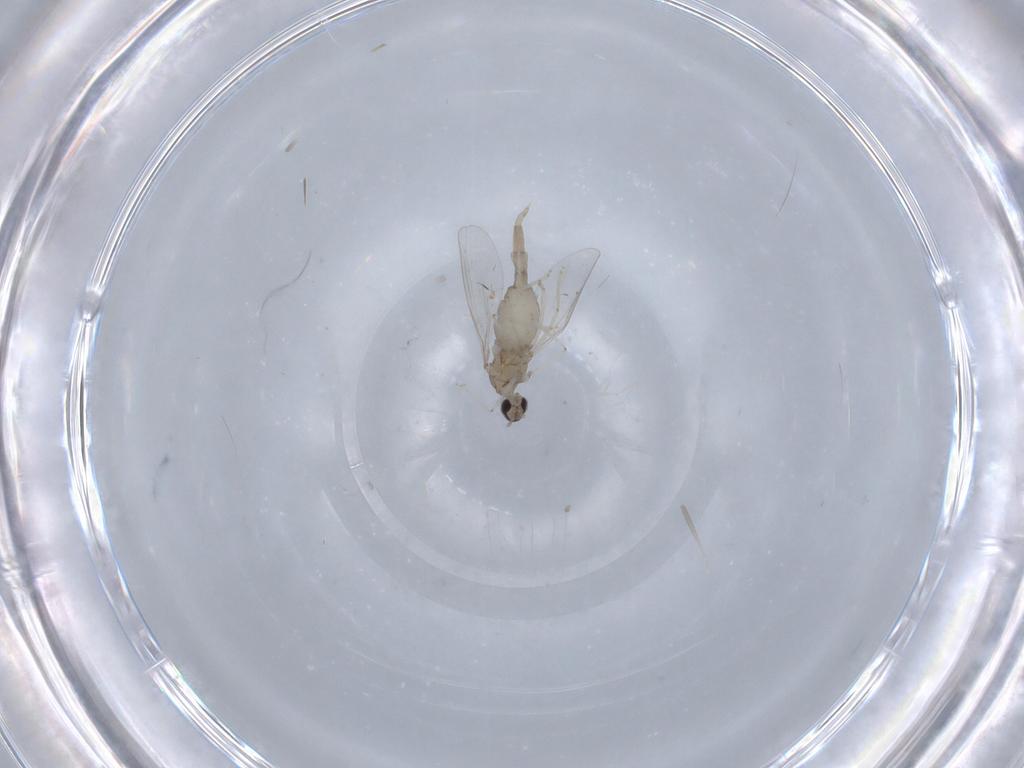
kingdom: Animalia
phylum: Arthropoda
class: Insecta
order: Diptera
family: Cecidomyiidae
